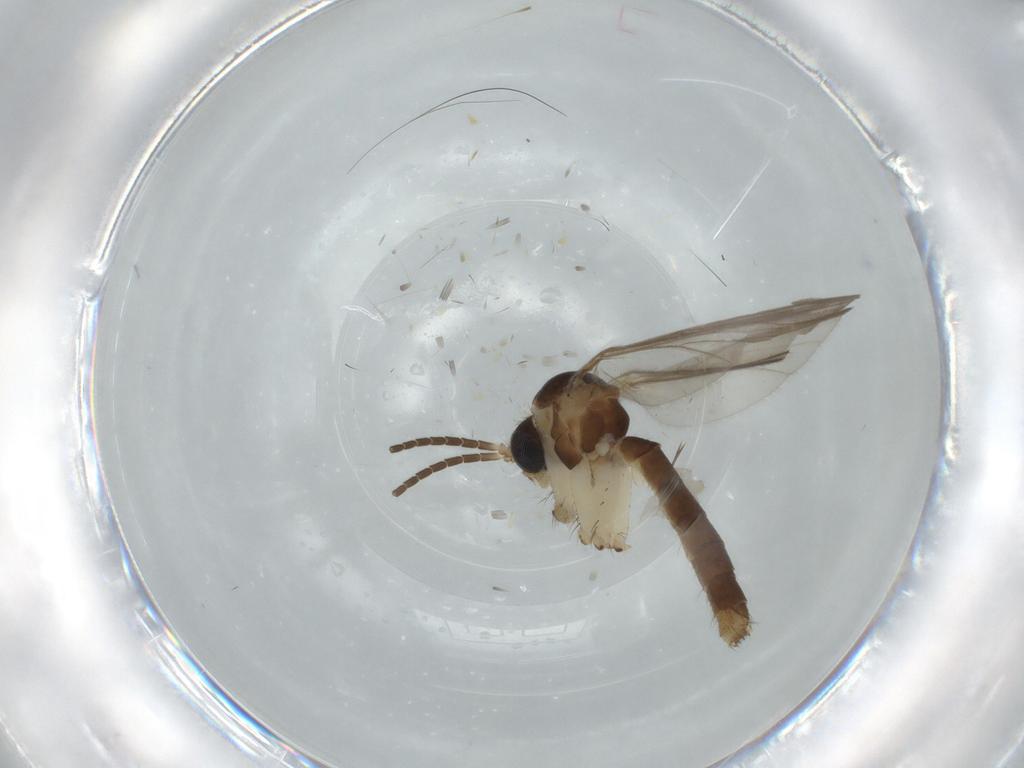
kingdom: Animalia
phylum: Arthropoda
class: Insecta
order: Diptera
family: Mycetophilidae
